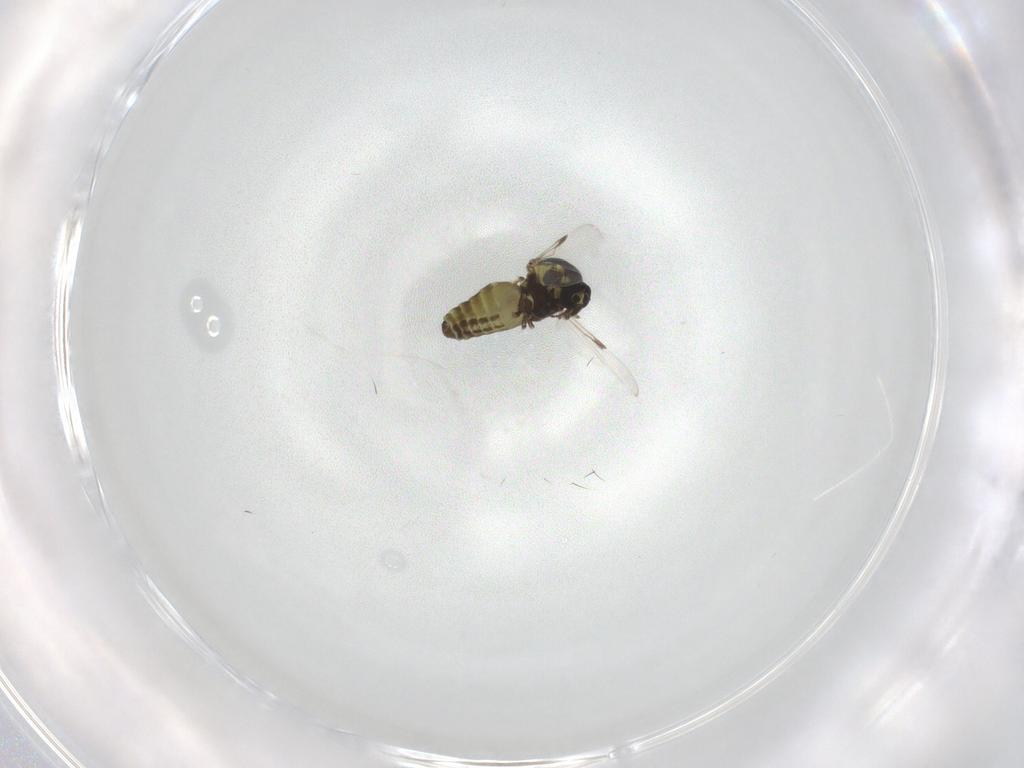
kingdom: Animalia
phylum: Arthropoda
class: Insecta
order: Diptera
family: Ceratopogonidae
